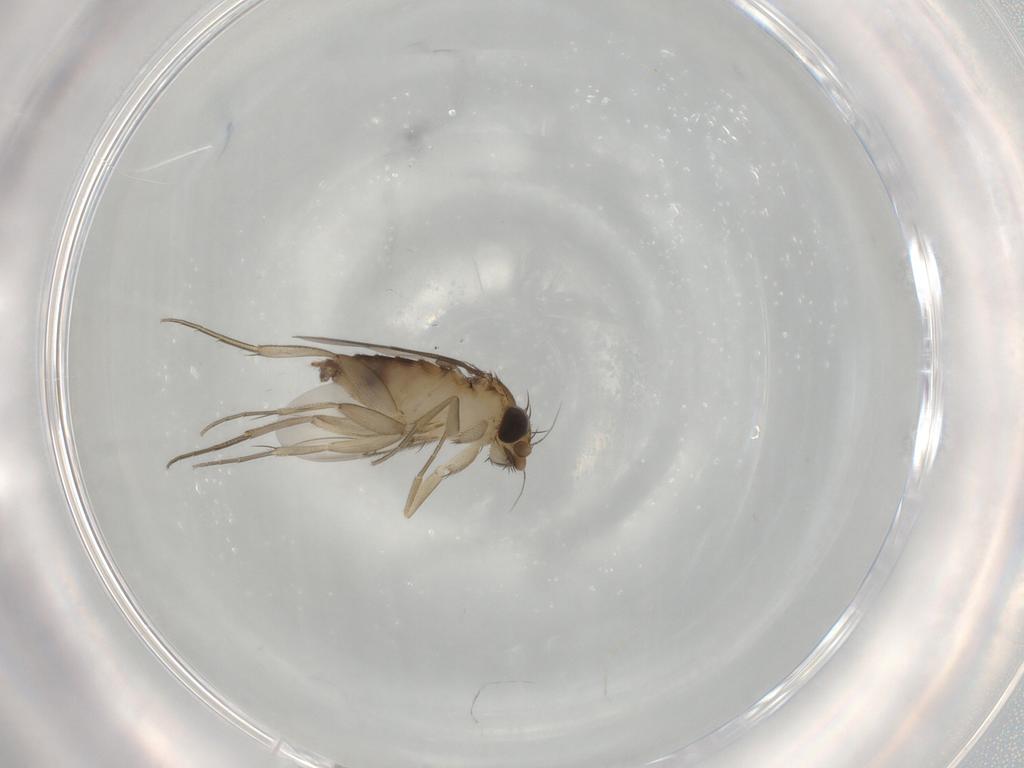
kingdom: Animalia
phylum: Arthropoda
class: Insecta
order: Diptera
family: Phoridae
